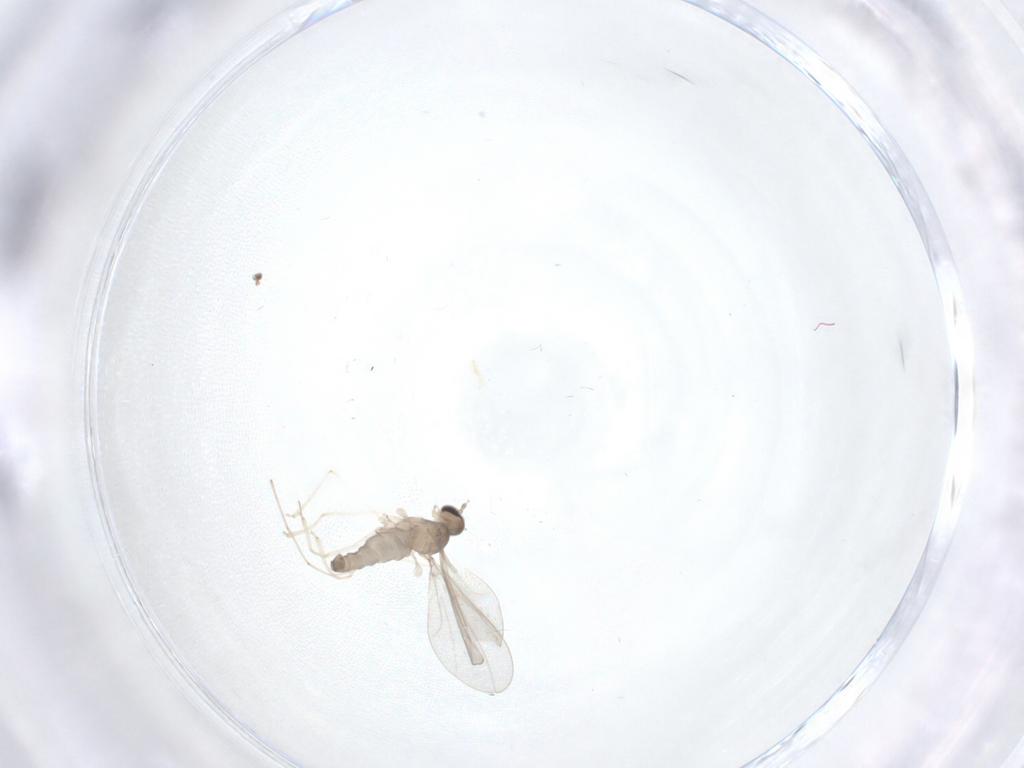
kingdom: Animalia
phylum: Arthropoda
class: Insecta
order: Diptera
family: Cecidomyiidae
